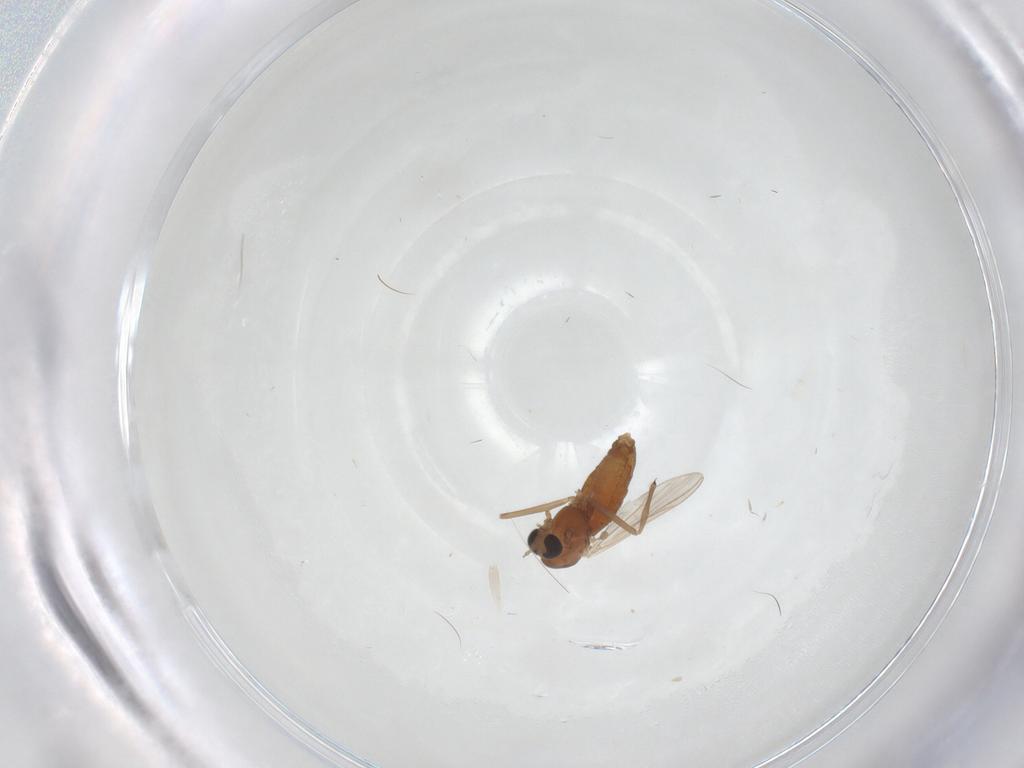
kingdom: Animalia
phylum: Arthropoda
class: Insecta
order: Diptera
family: Chironomidae
